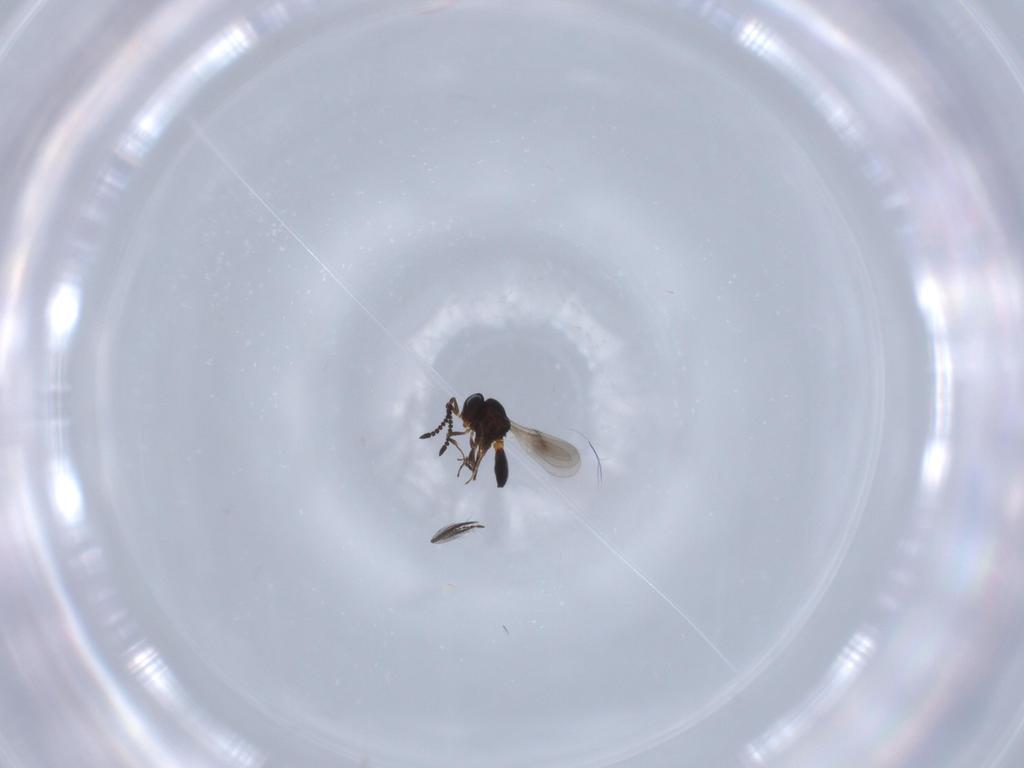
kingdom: Animalia
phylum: Arthropoda
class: Insecta
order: Hymenoptera
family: Scelionidae
